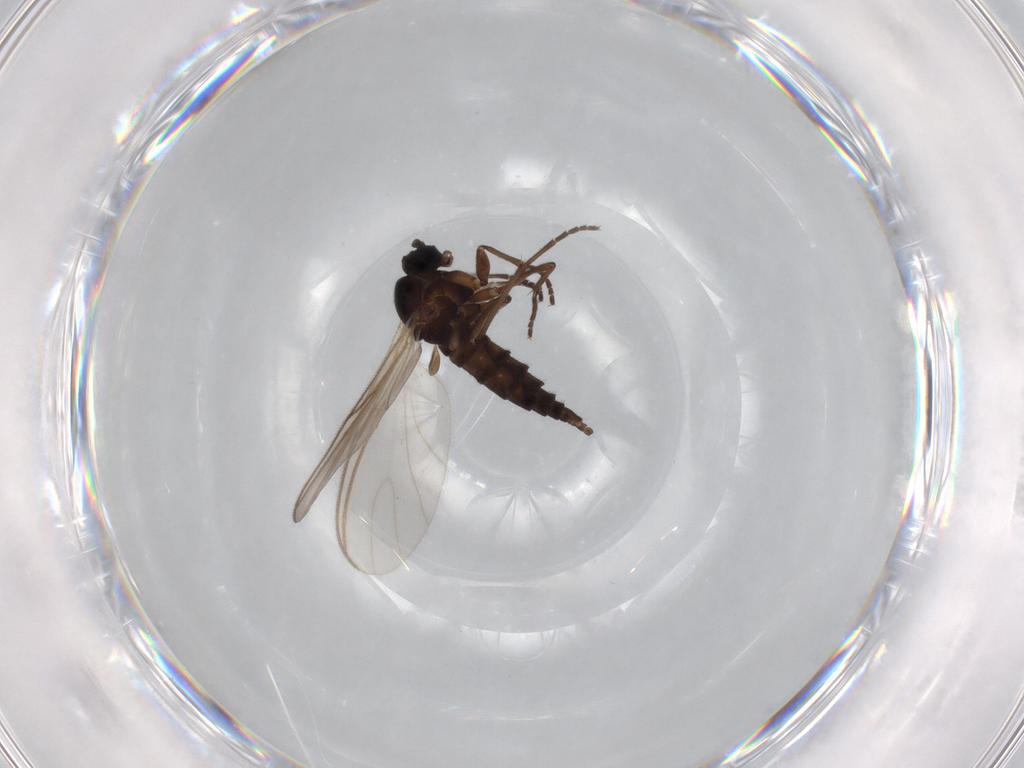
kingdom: Animalia
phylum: Arthropoda
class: Insecta
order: Diptera
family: Sciaridae
